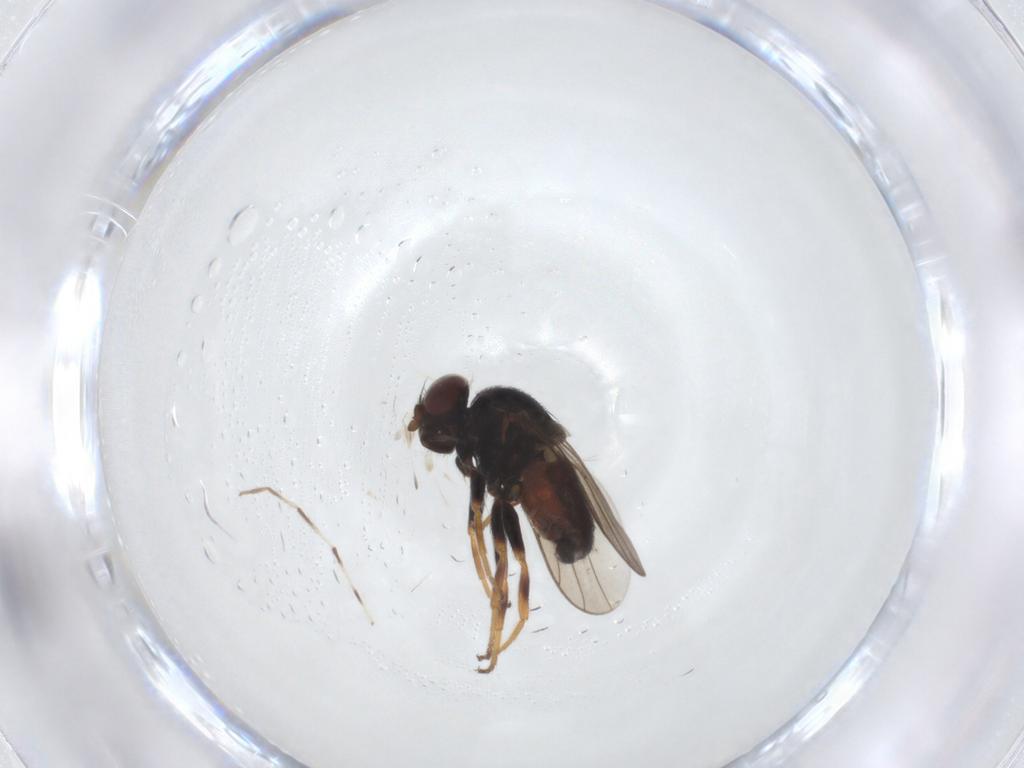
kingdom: Animalia
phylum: Arthropoda
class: Insecta
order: Diptera
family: Chloropidae
